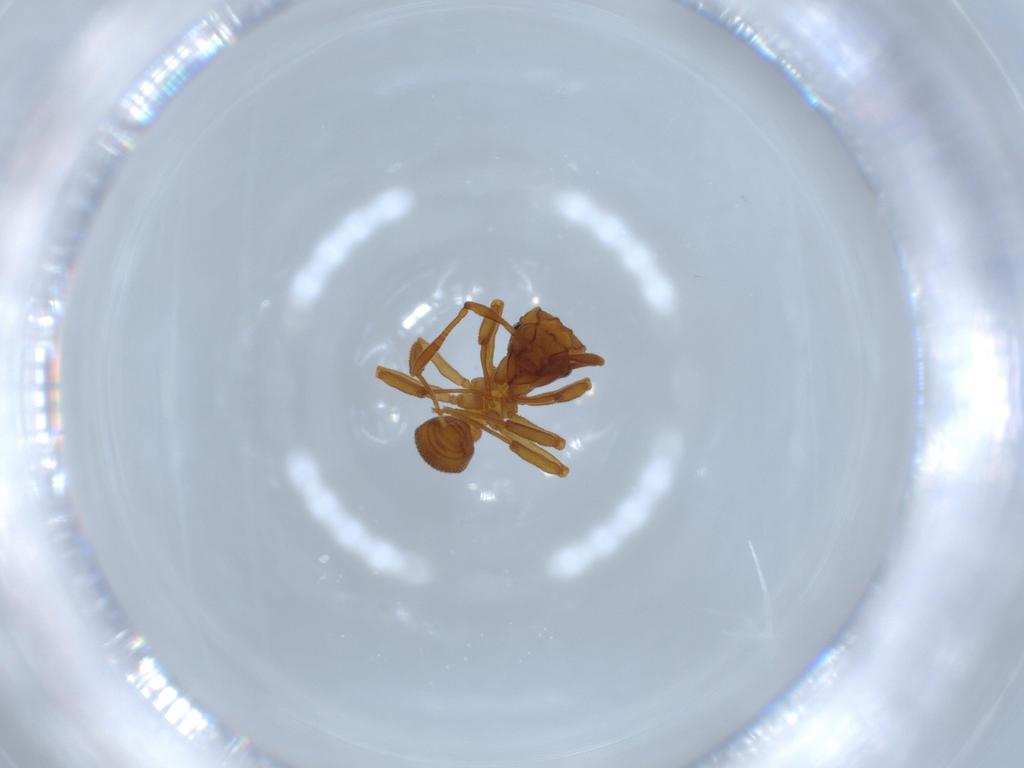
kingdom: Animalia
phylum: Arthropoda
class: Insecta
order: Hymenoptera
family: Formicidae
